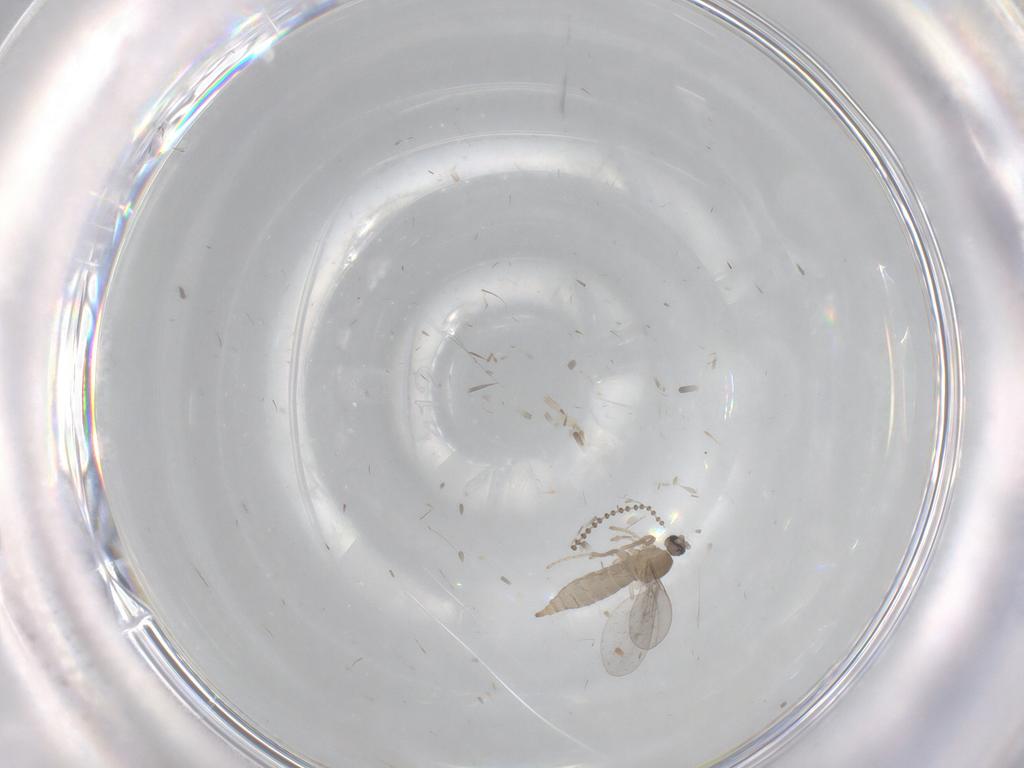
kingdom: Animalia
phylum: Arthropoda
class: Insecta
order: Diptera
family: Cecidomyiidae
